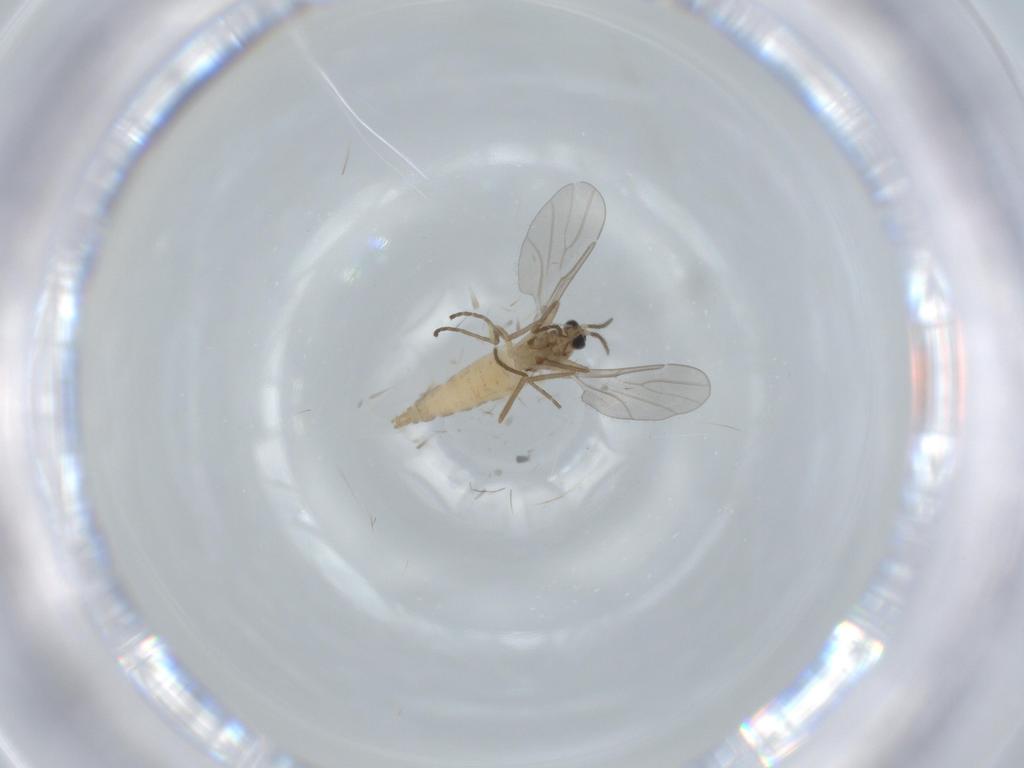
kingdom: Animalia
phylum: Arthropoda
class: Insecta
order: Diptera
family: Cecidomyiidae
